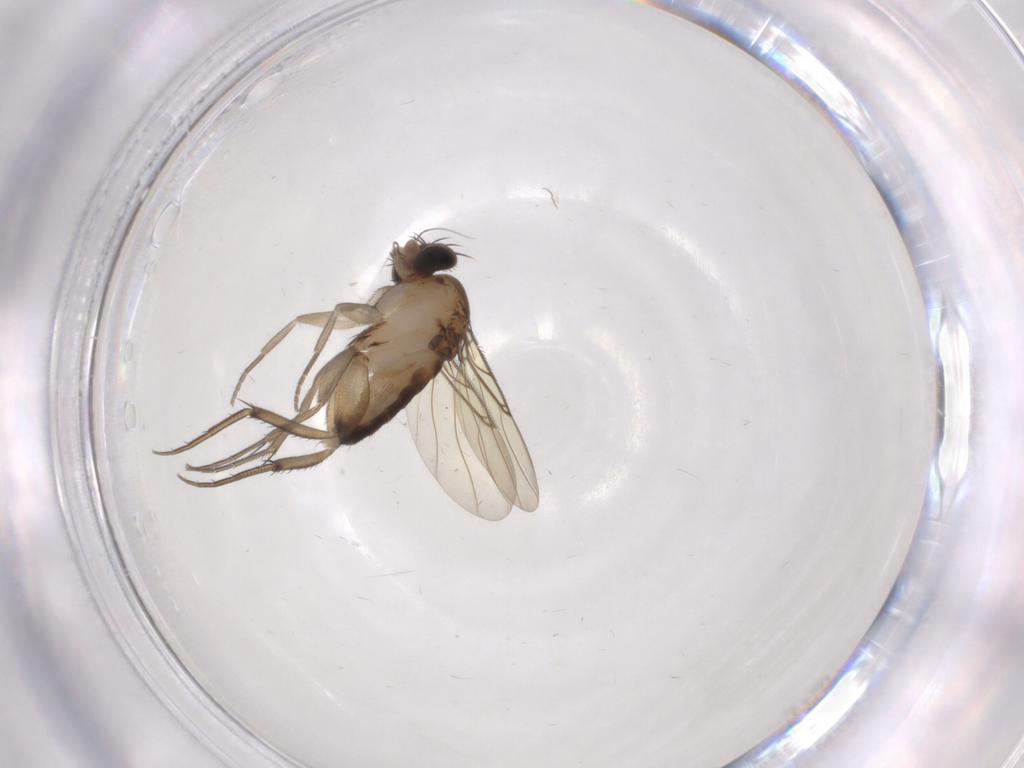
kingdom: Animalia
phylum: Arthropoda
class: Insecta
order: Diptera
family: Phoridae
